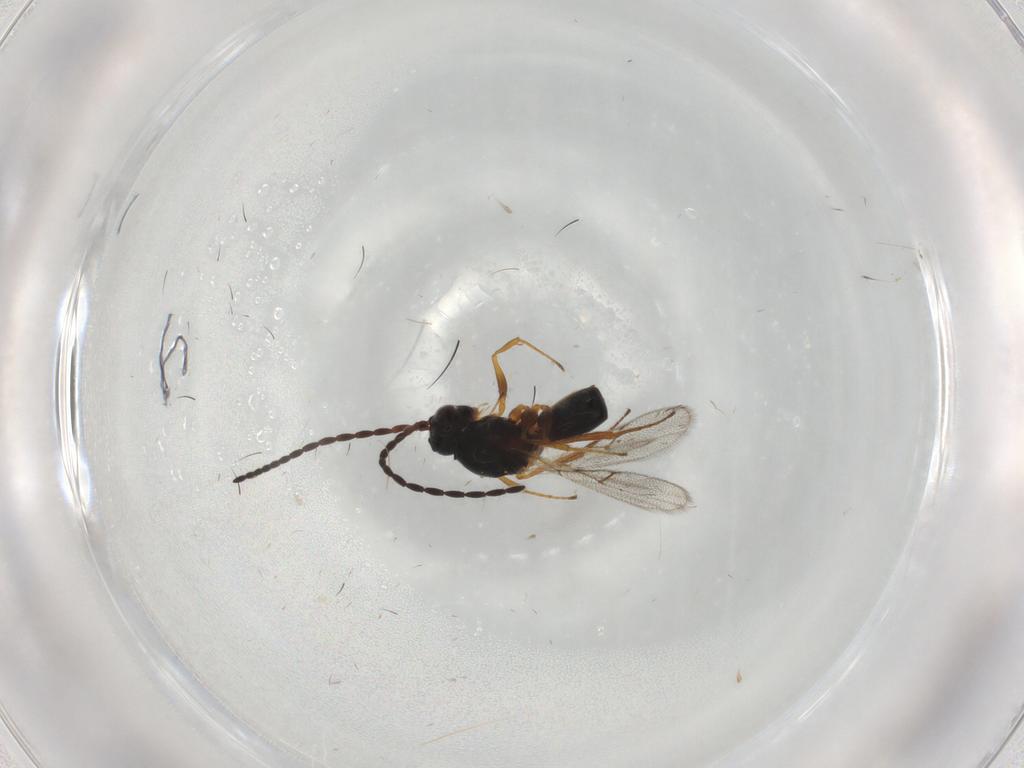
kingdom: Animalia
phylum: Arthropoda
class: Insecta
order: Hymenoptera
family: Figitidae
